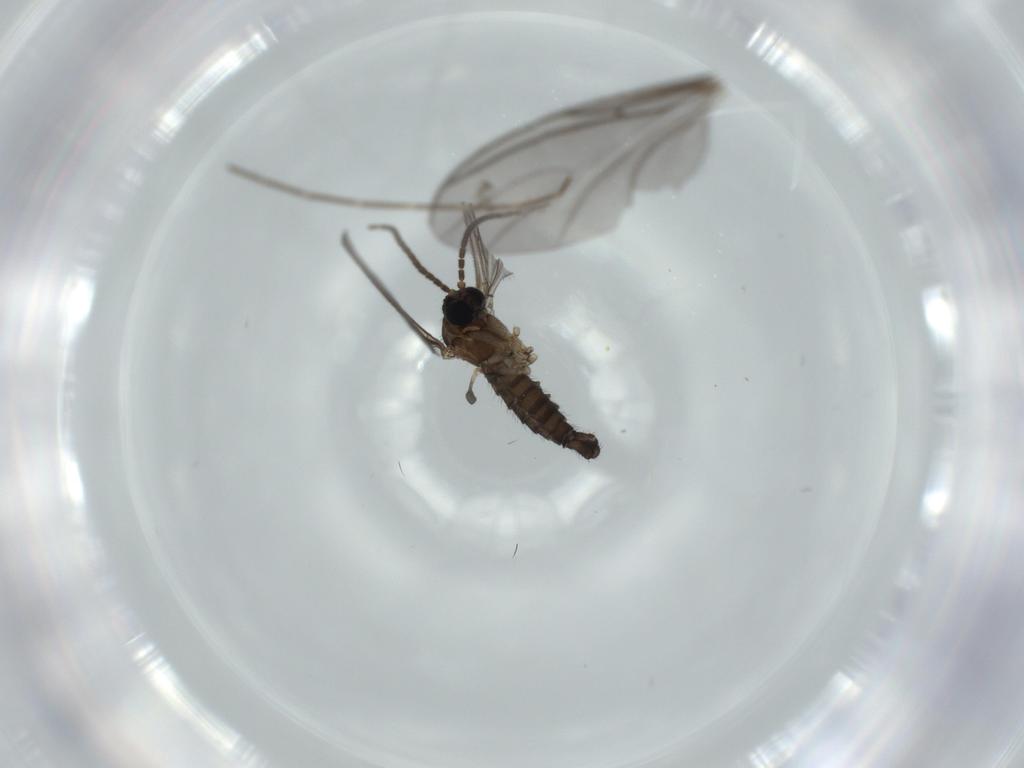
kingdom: Animalia
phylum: Arthropoda
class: Insecta
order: Diptera
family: Sciaridae
